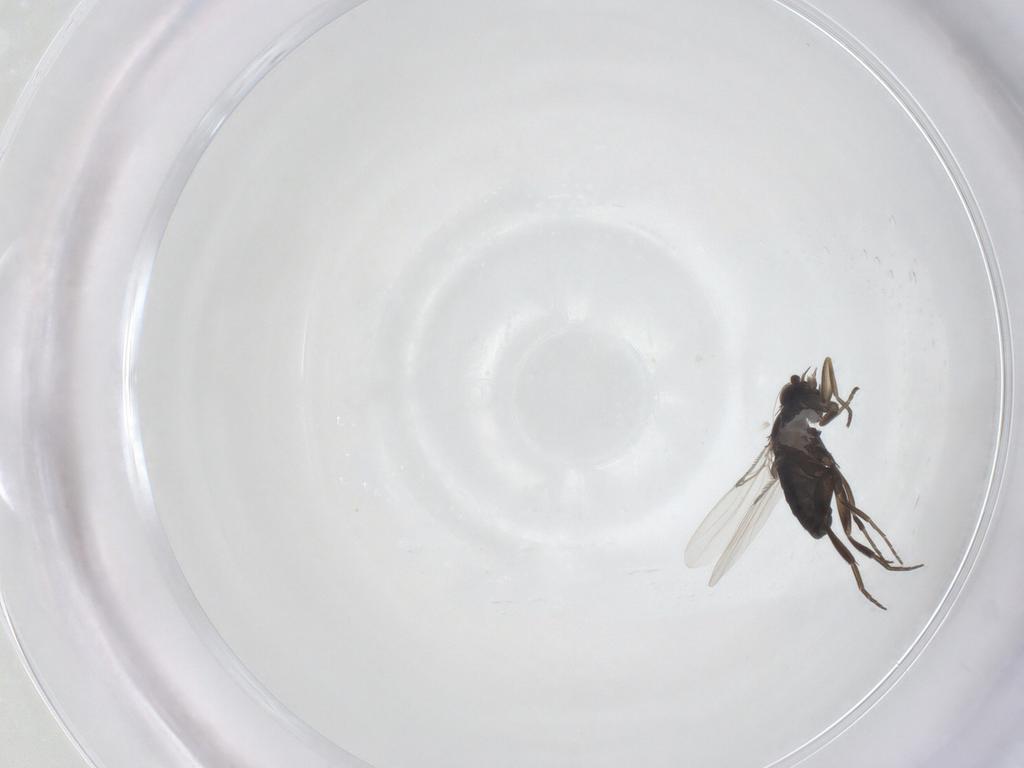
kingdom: Animalia
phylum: Arthropoda
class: Insecta
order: Diptera
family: Phoridae
